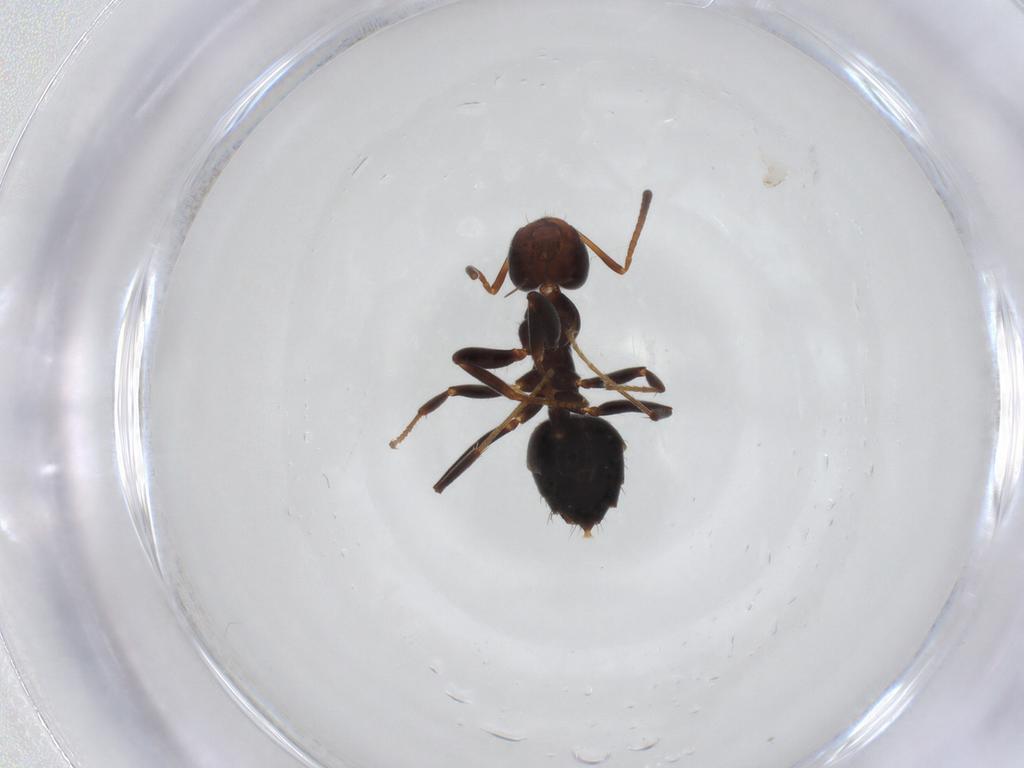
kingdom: Animalia
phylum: Arthropoda
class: Insecta
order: Hymenoptera
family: Formicidae
